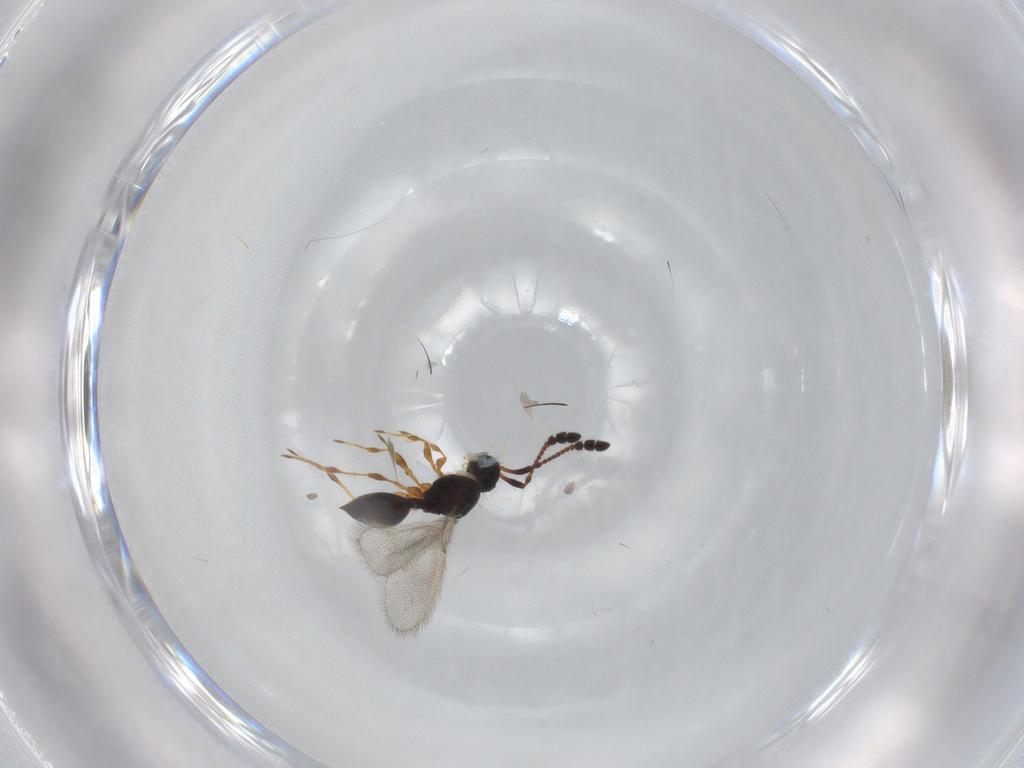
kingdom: Animalia
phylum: Arthropoda
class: Insecta
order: Hymenoptera
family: Diapriidae
